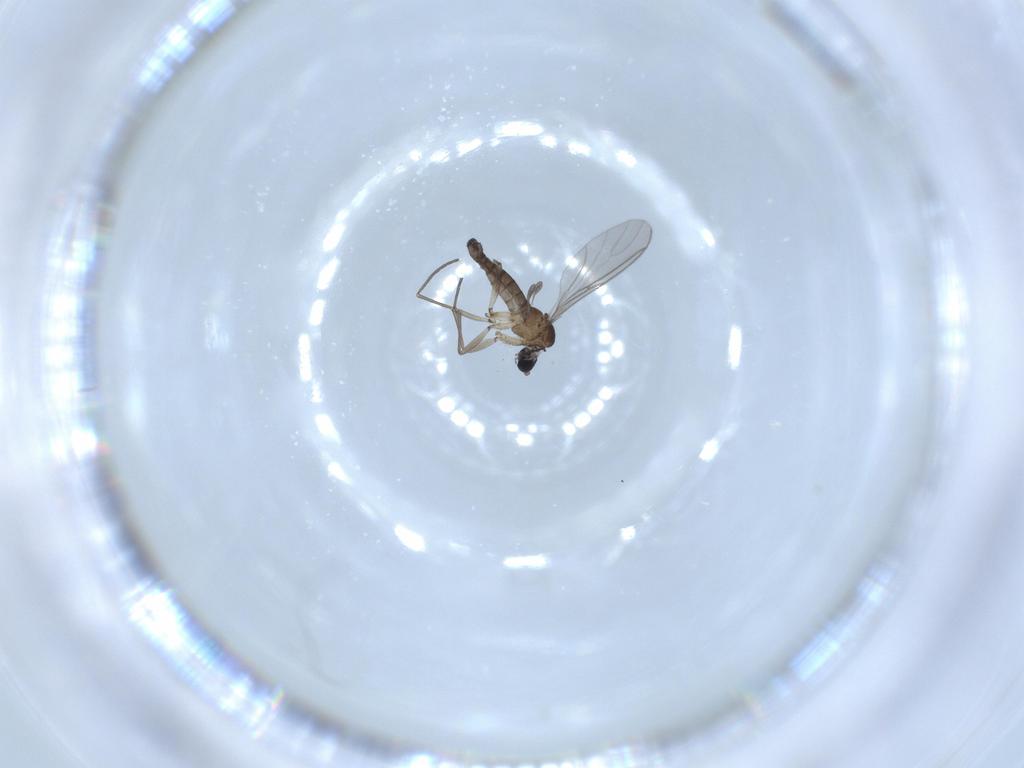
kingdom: Animalia
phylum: Arthropoda
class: Insecta
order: Diptera
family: Sciaridae
